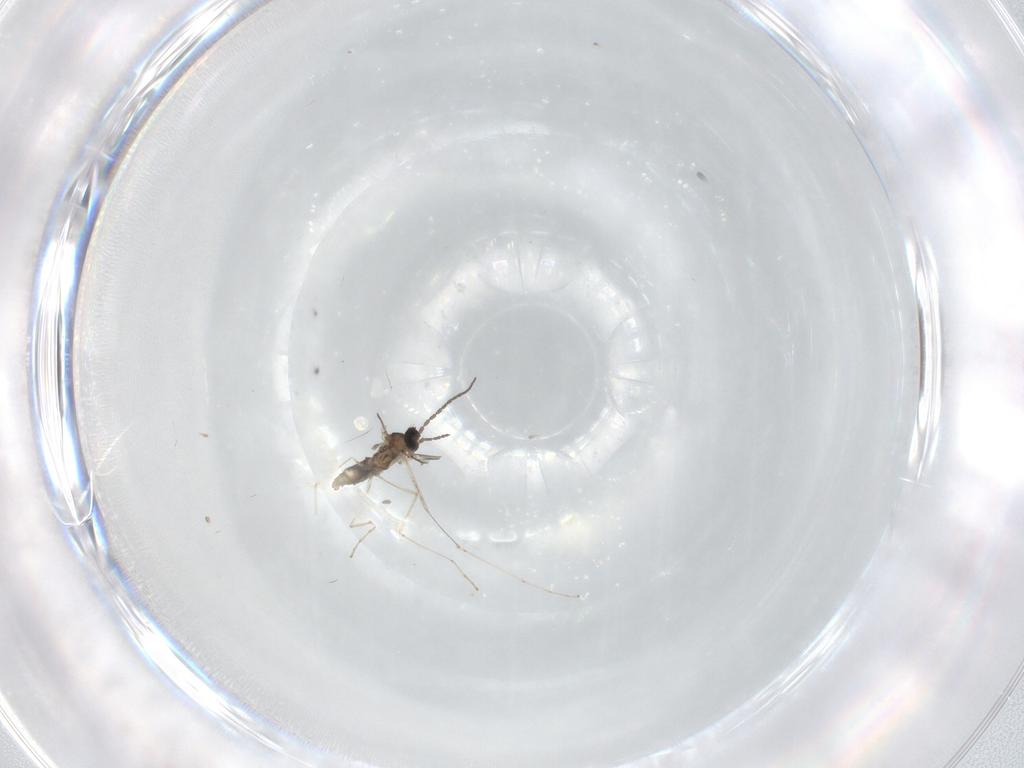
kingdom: Animalia
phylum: Arthropoda
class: Insecta
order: Diptera
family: Cecidomyiidae
